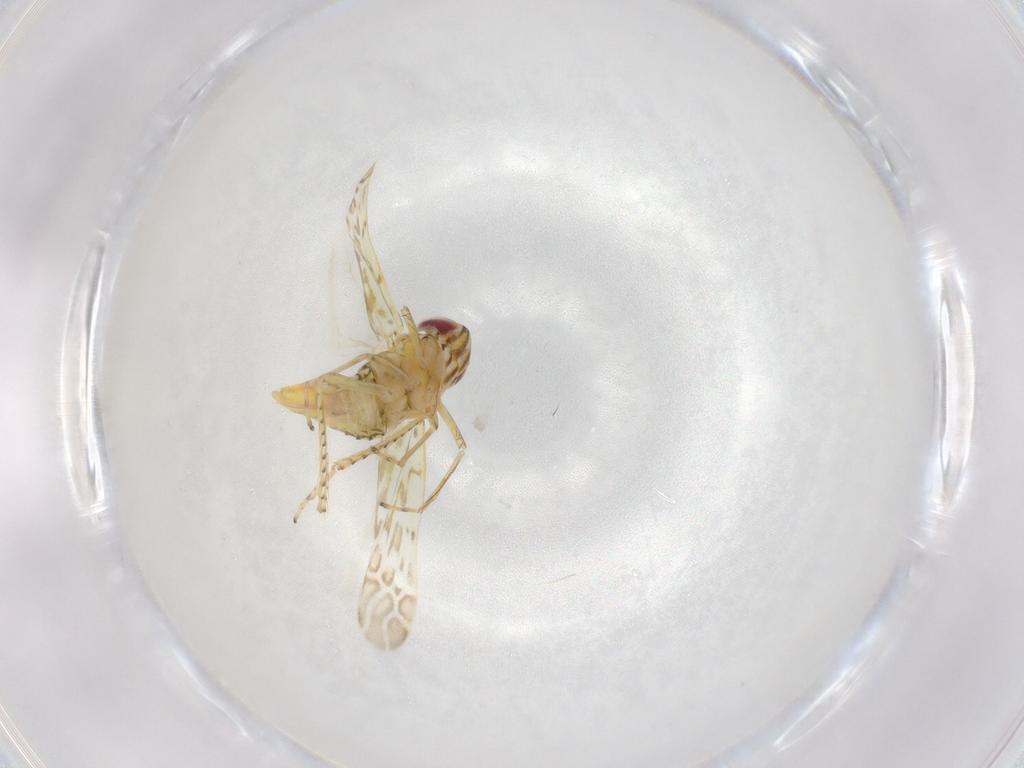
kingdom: Animalia
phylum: Arthropoda
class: Insecta
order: Hemiptera
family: Cicadellidae
